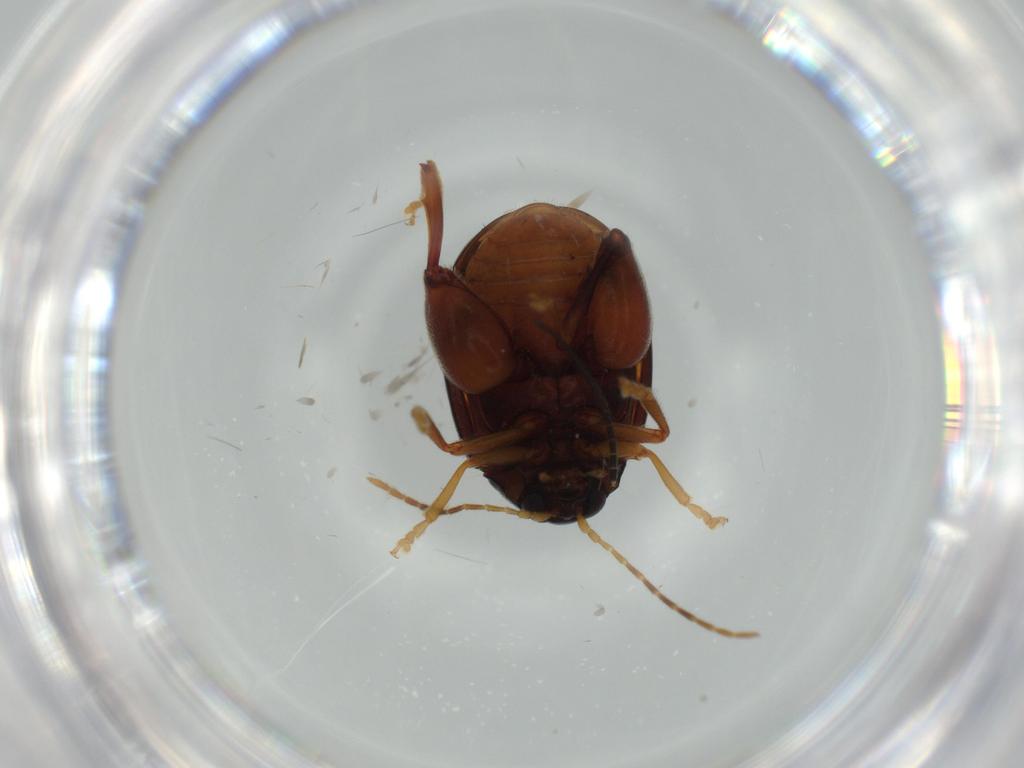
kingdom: Animalia
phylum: Arthropoda
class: Insecta
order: Coleoptera
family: Chrysomelidae
